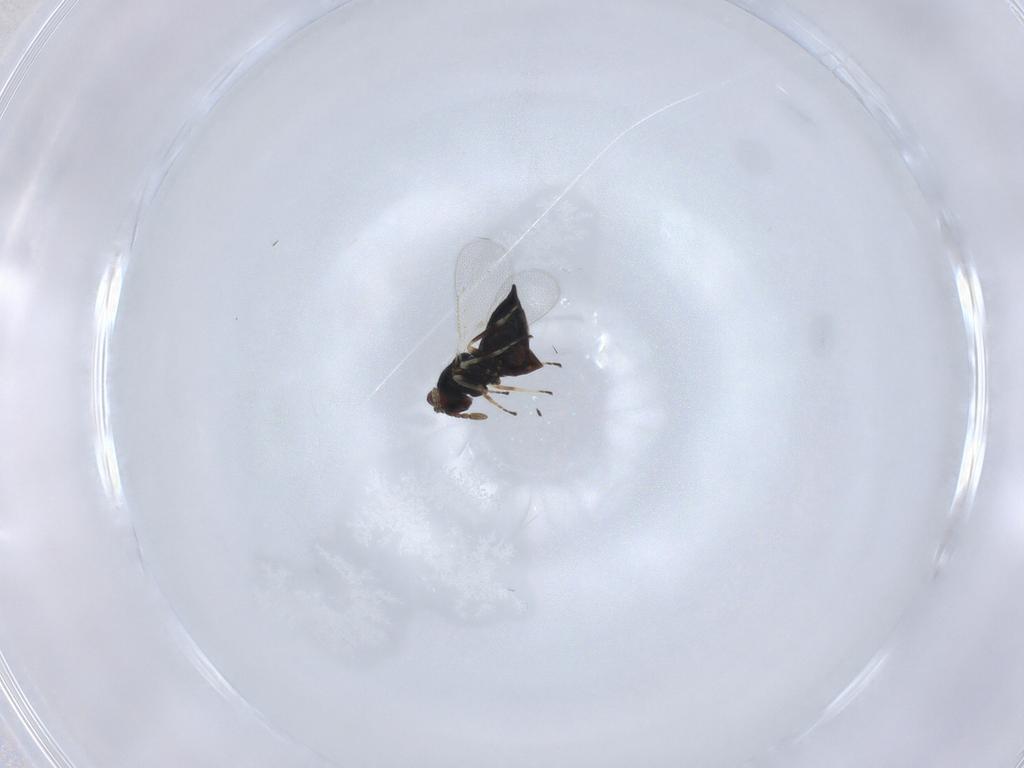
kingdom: Animalia
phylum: Arthropoda
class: Insecta
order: Hymenoptera
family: Eulophidae
